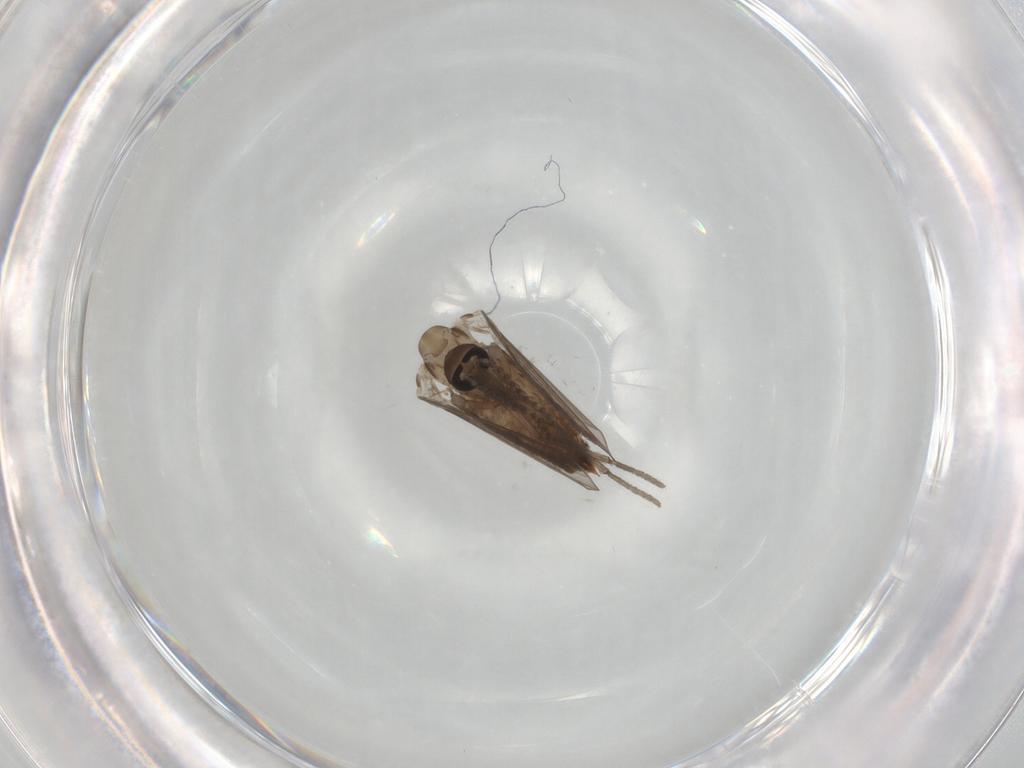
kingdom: Animalia
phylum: Arthropoda
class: Insecta
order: Diptera
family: Psychodidae
